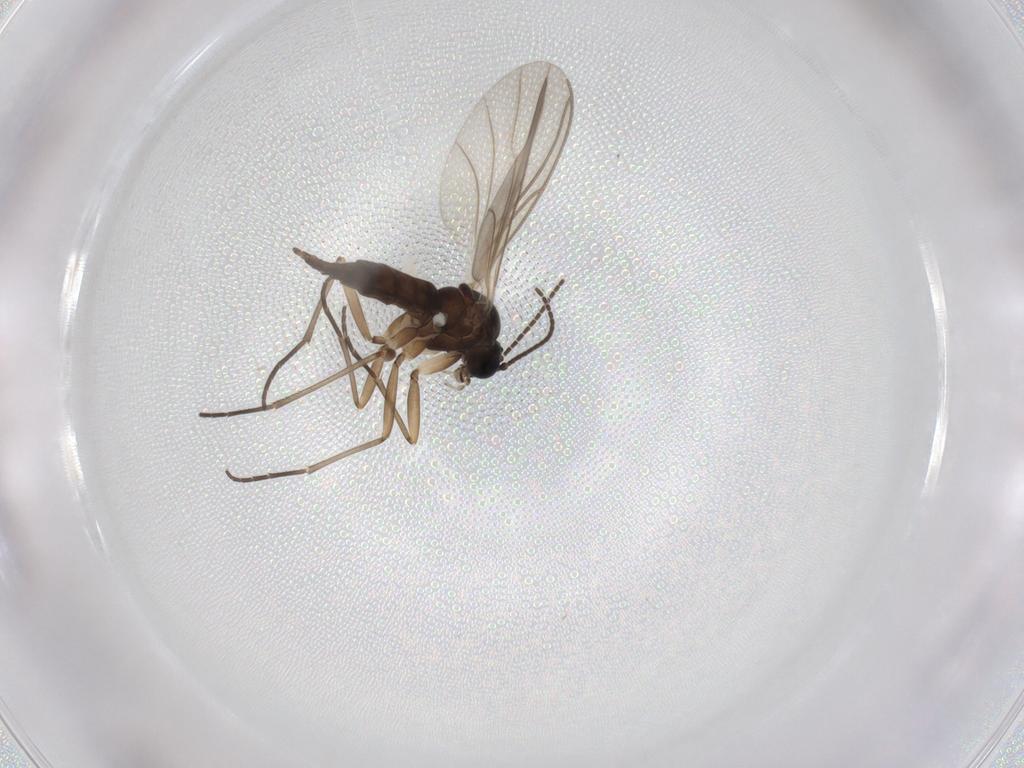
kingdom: Animalia
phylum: Arthropoda
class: Insecta
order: Diptera
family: Sciaridae
